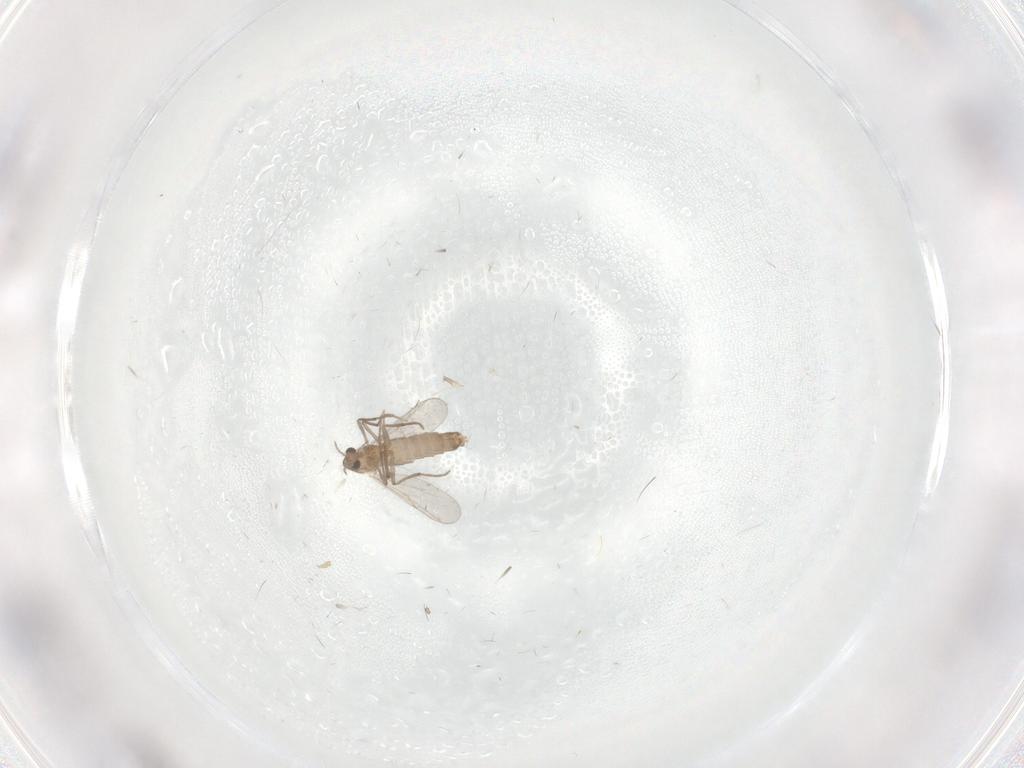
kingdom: Animalia
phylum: Arthropoda
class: Insecta
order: Diptera
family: Chironomidae
